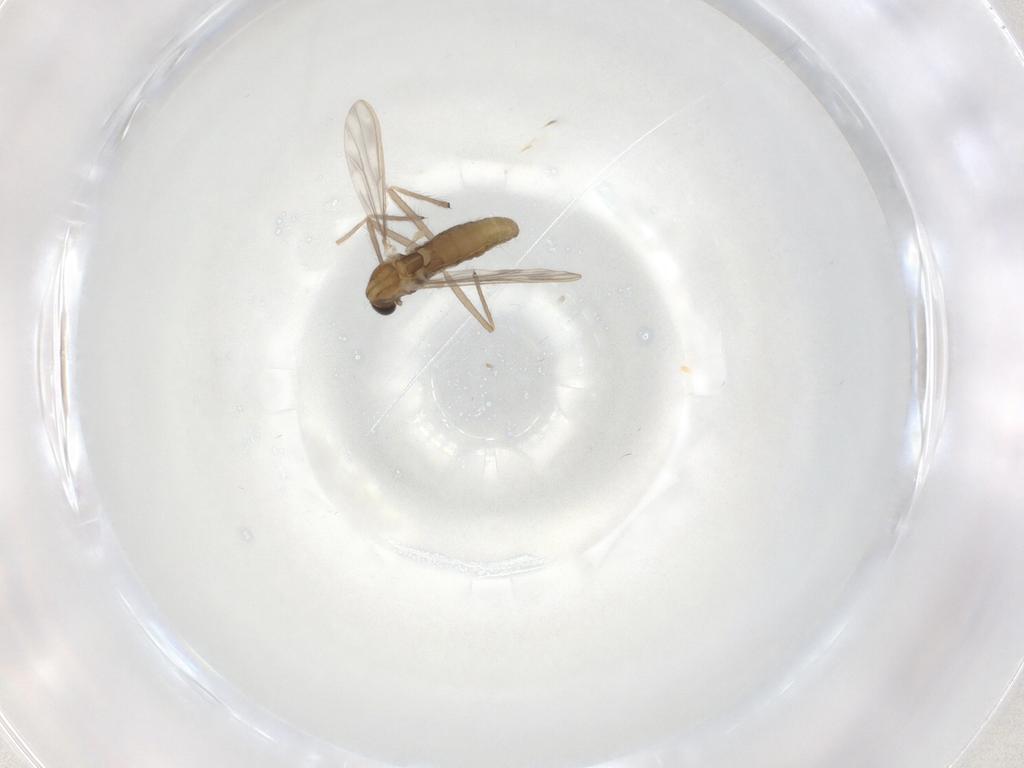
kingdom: Animalia
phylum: Arthropoda
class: Insecta
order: Diptera
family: Chironomidae
